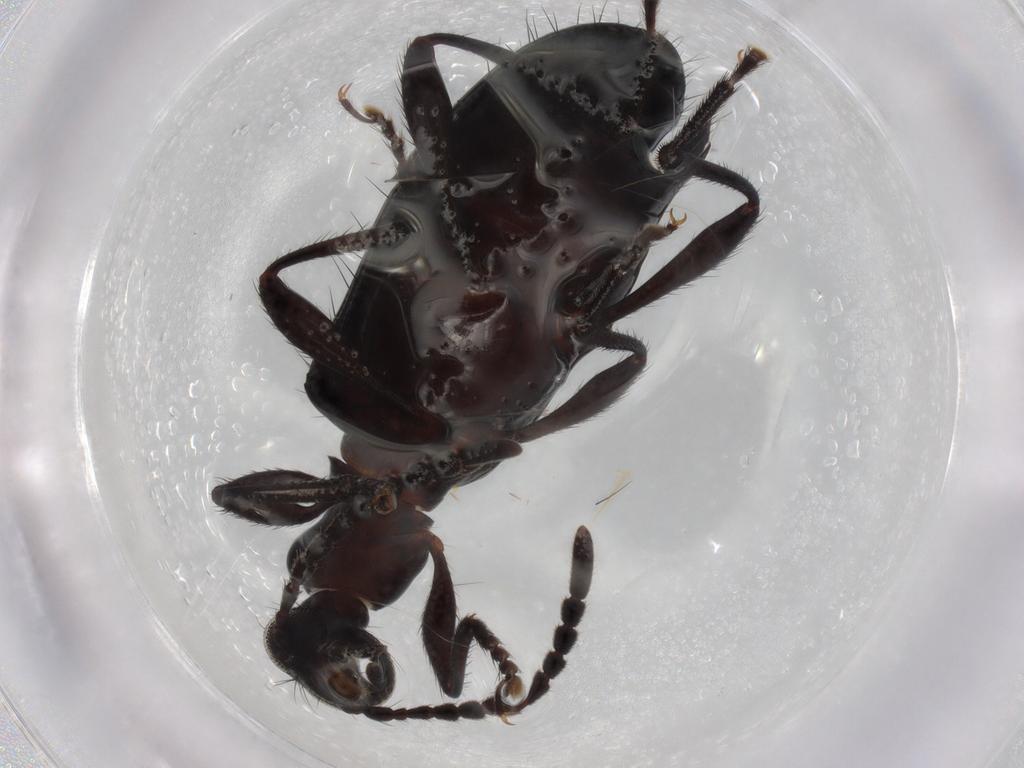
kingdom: Animalia
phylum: Arthropoda
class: Insecta
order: Coleoptera
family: Tenebrionidae
